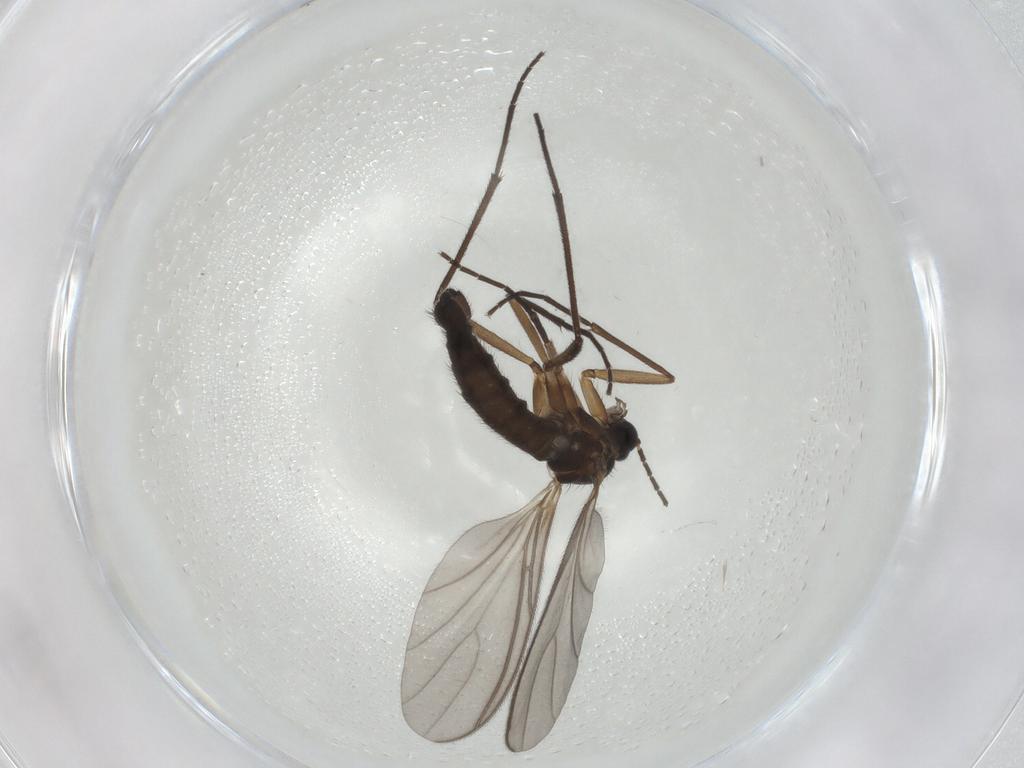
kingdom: Animalia
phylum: Arthropoda
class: Insecta
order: Diptera
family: Sciaridae
